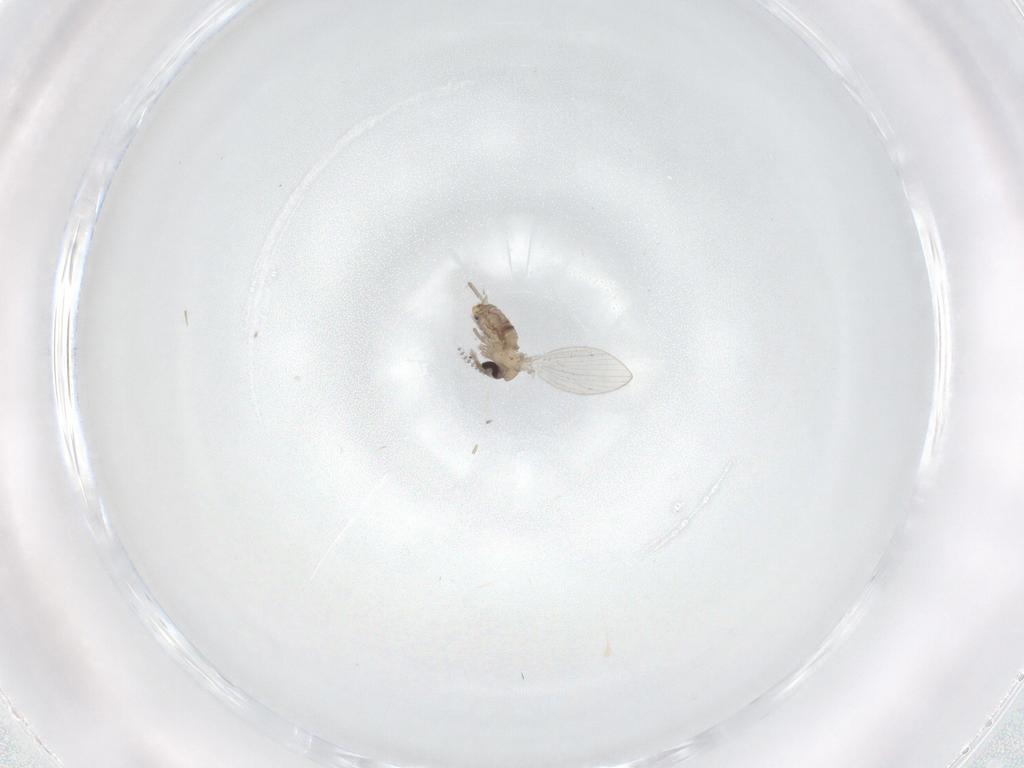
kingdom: Animalia
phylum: Arthropoda
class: Insecta
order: Diptera
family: Psychodidae
